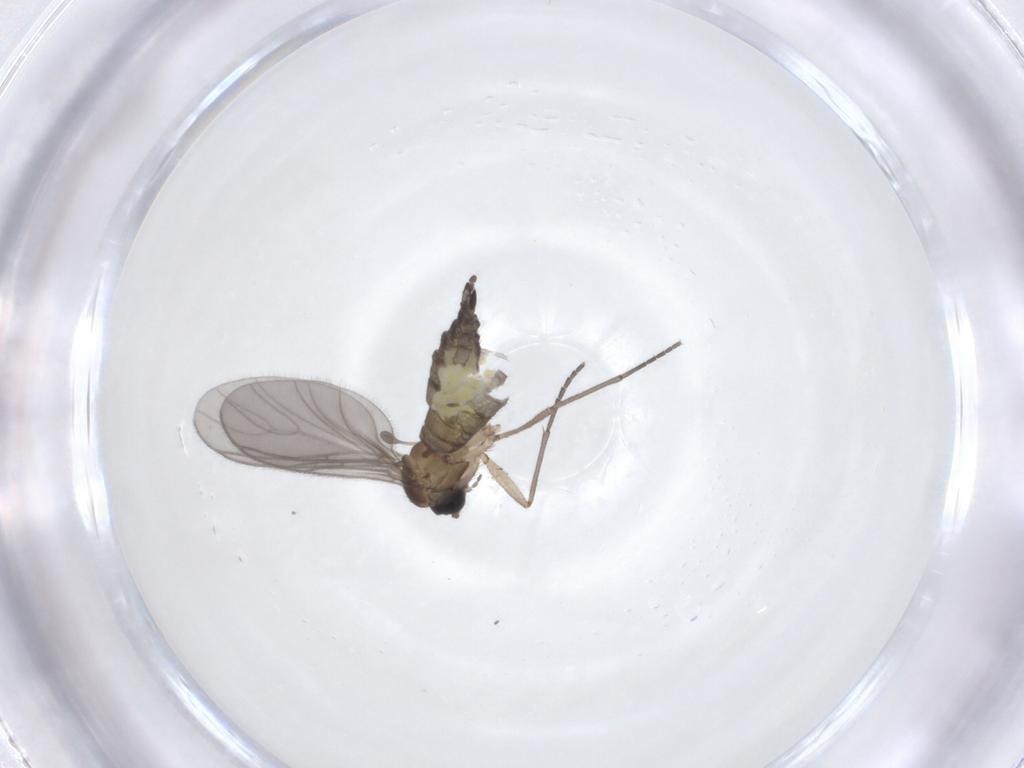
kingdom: Animalia
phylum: Arthropoda
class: Insecta
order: Diptera
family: Sciaridae
